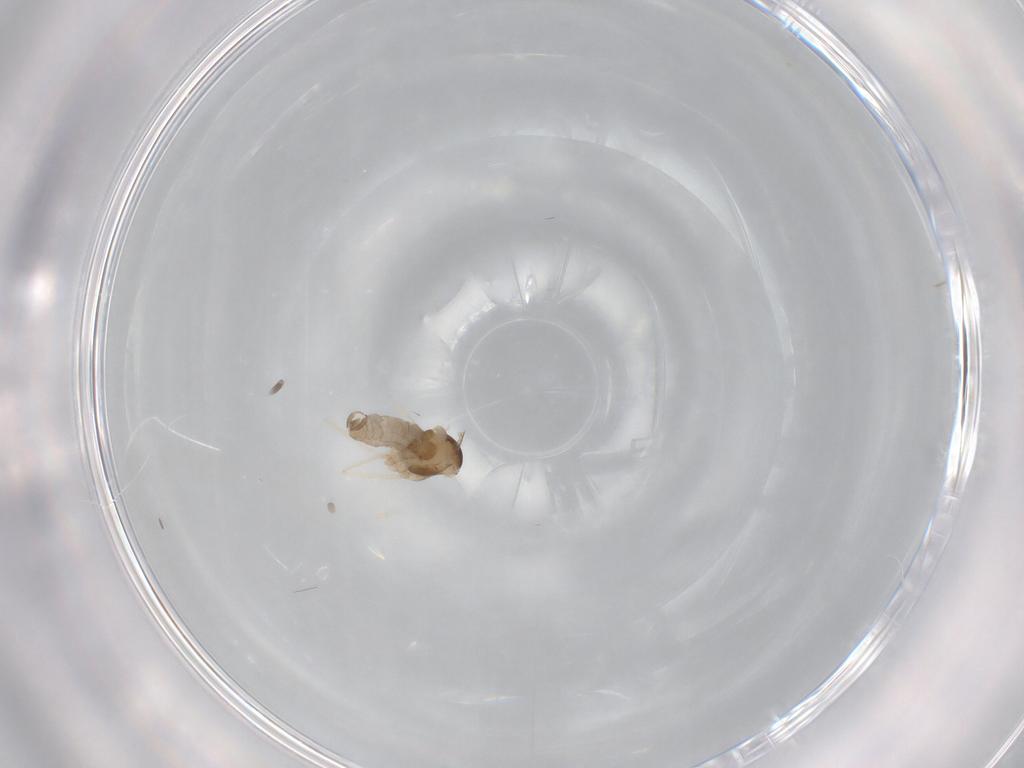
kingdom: Animalia
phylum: Arthropoda
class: Insecta
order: Diptera
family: Cecidomyiidae
